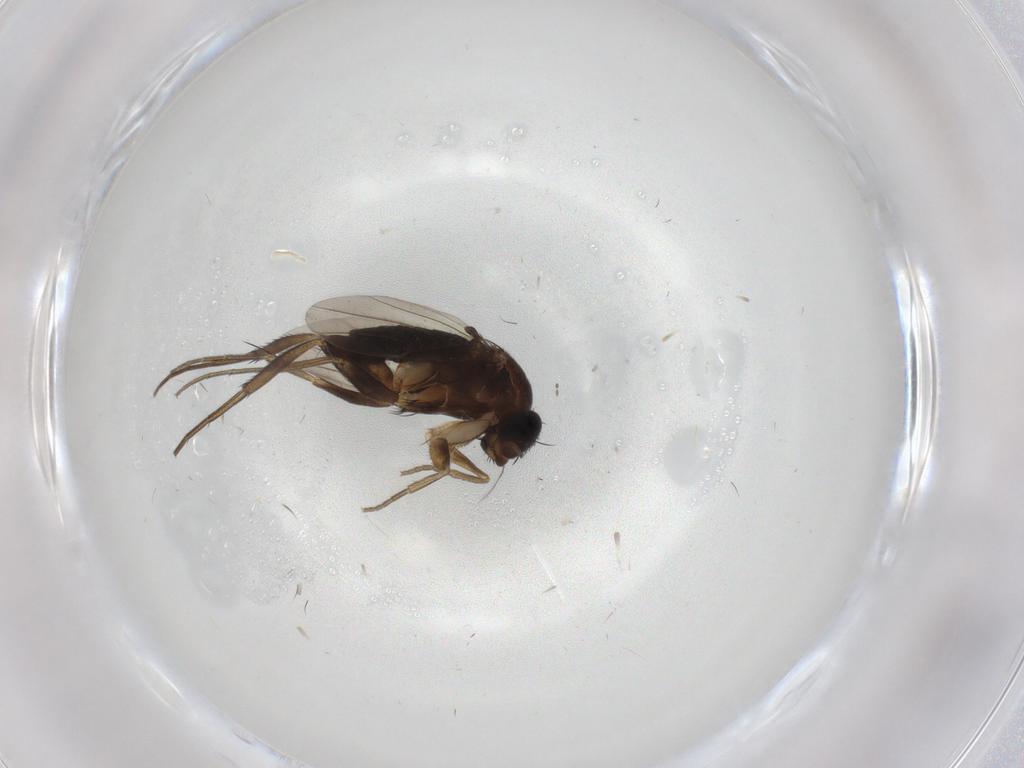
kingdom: Animalia
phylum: Arthropoda
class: Insecta
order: Diptera
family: Phoridae
